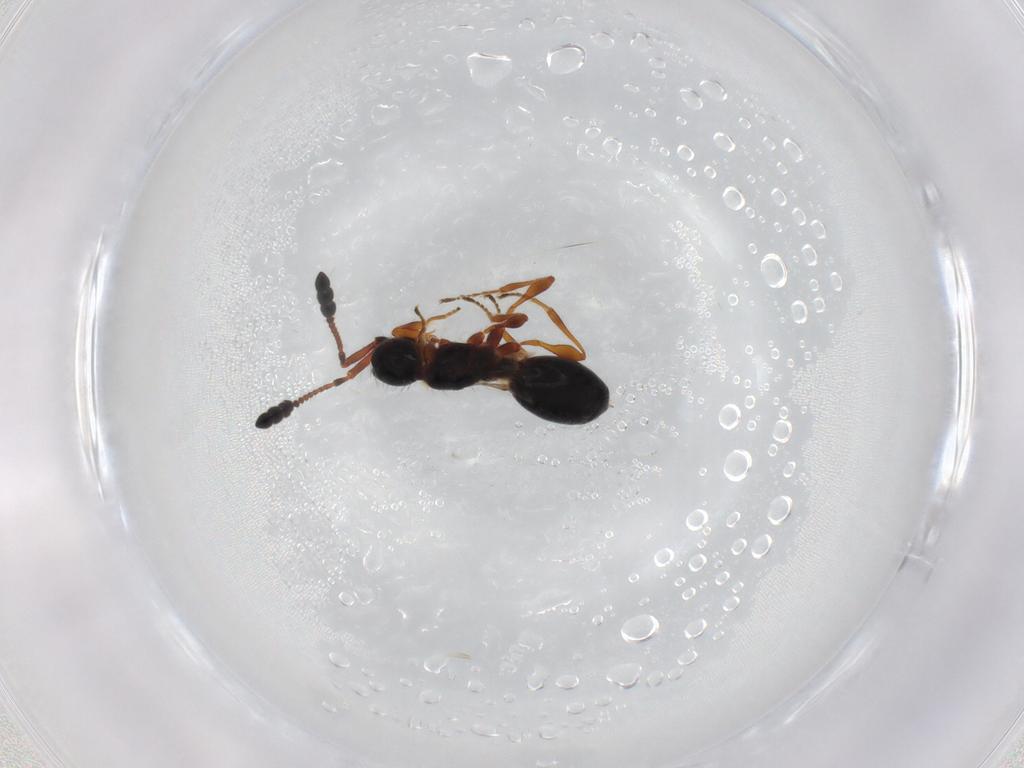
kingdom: Animalia
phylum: Arthropoda
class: Insecta
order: Hymenoptera
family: Diapriidae
